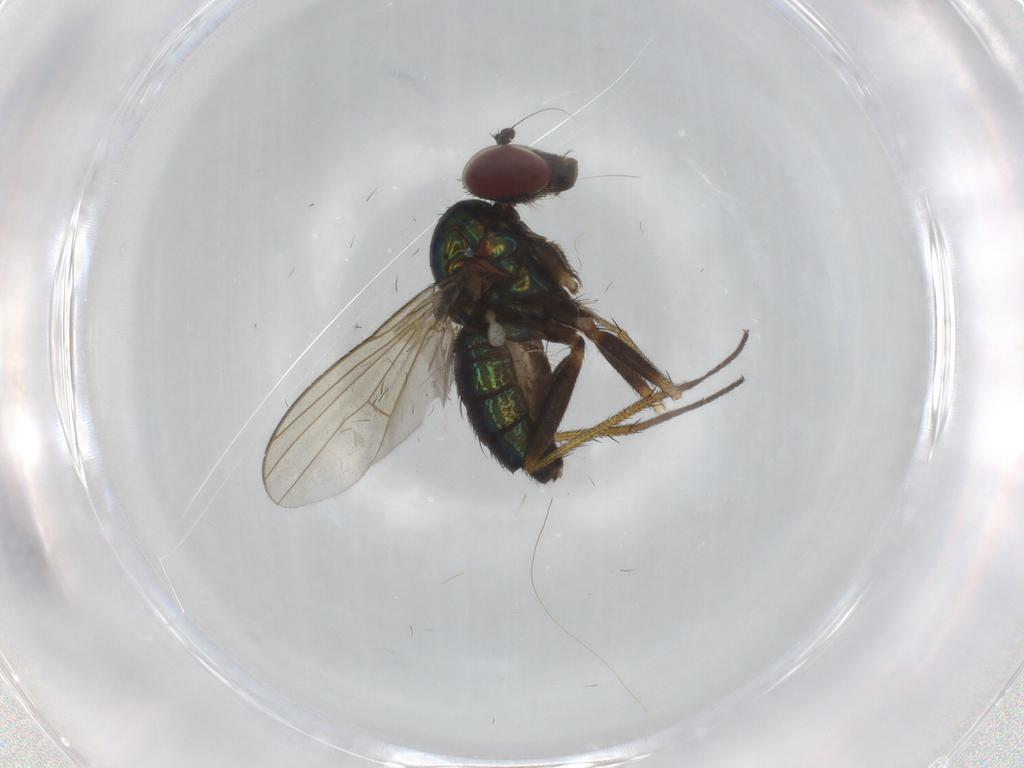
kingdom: Animalia
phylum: Arthropoda
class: Insecta
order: Diptera
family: Dolichopodidae
